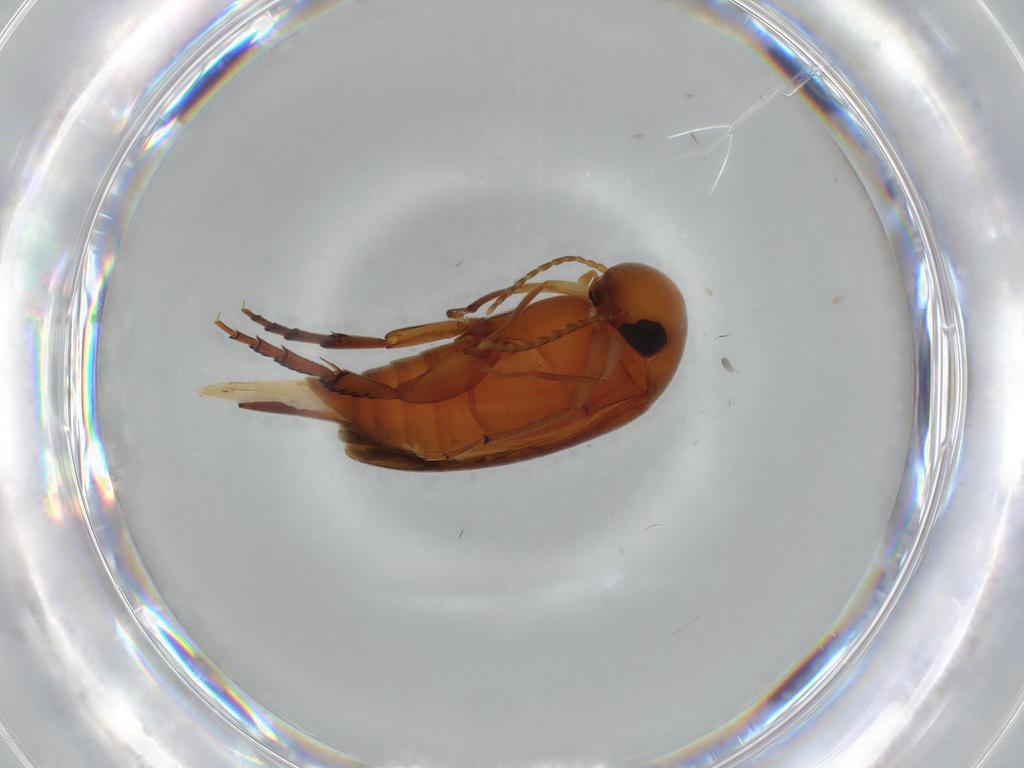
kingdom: Animalia
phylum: Arthropoda
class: Insecta
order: Coleoptera
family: Mordellidae
